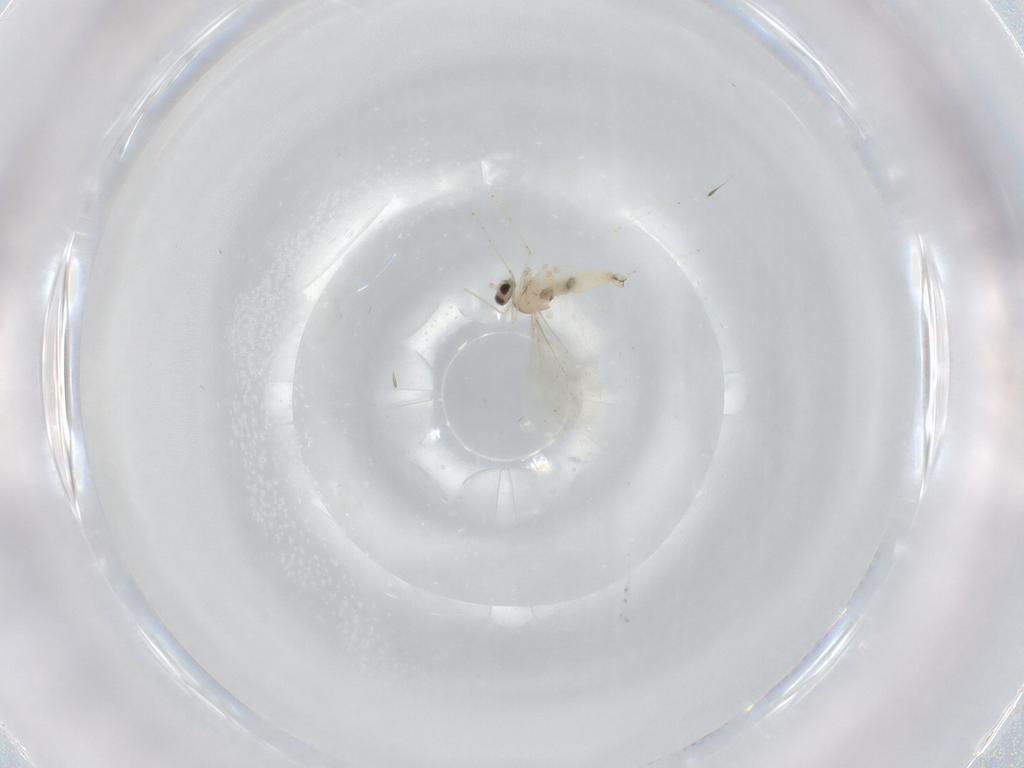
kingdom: Animalia
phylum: Arthropoda
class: Insecta
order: Diptera
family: Cecidomyiidae
